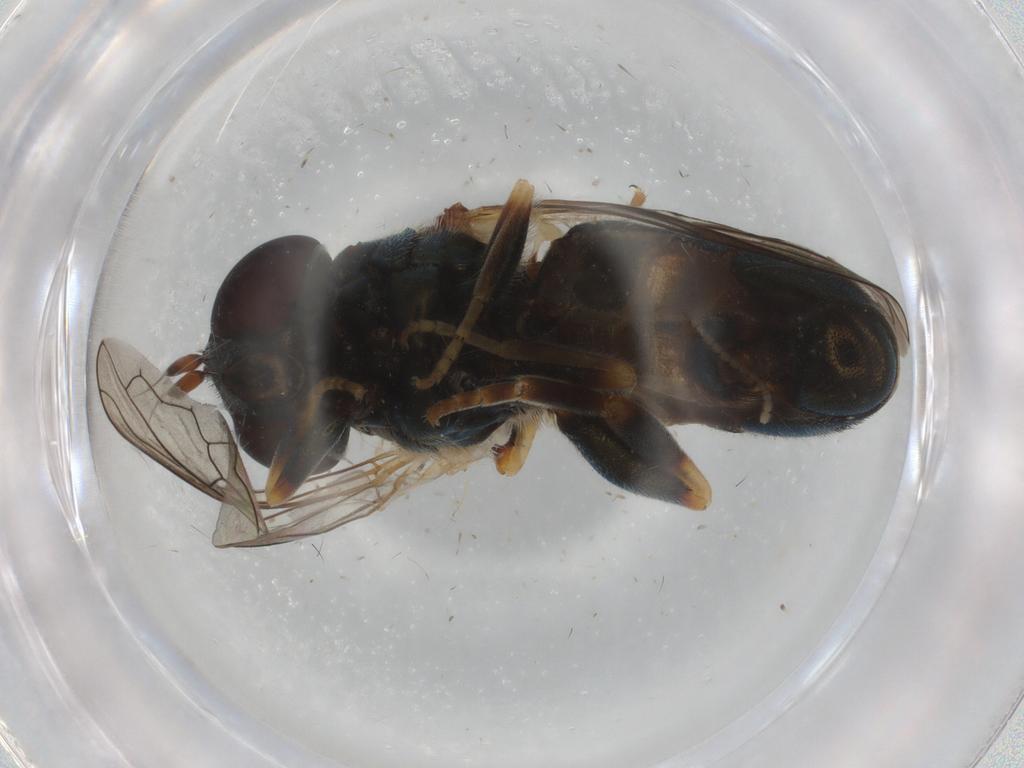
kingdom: Animalia
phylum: Arthropoda
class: Insecta
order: Diptera
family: Syrphidae
